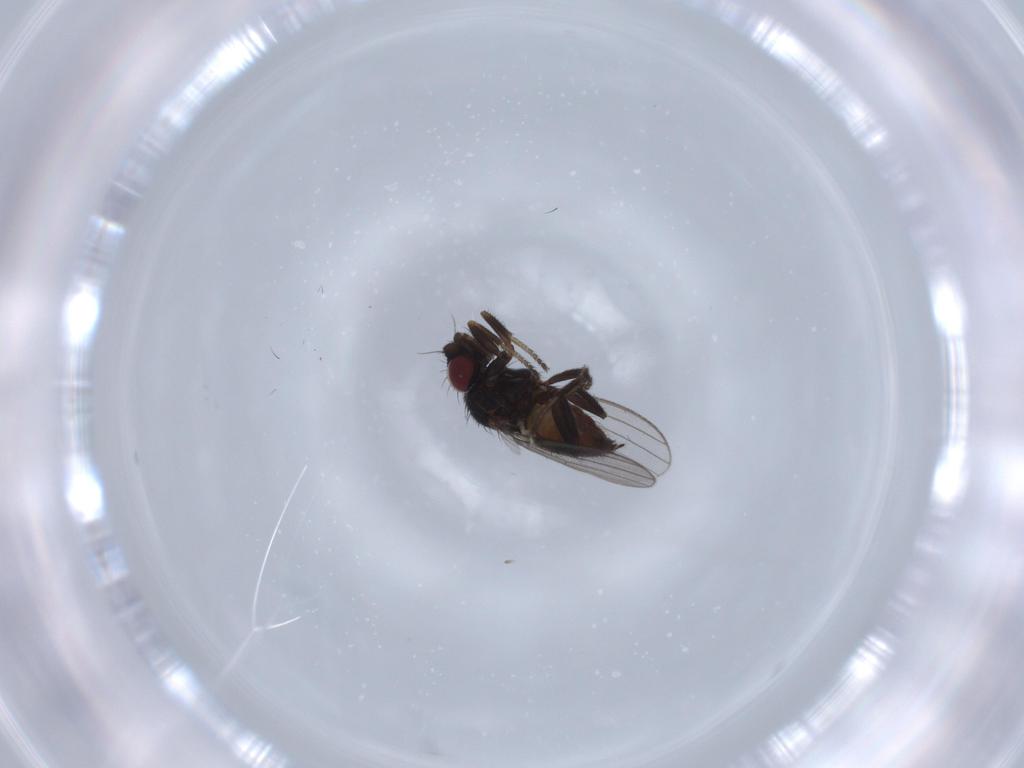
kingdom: Animalia
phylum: Arthropoda
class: Insecta
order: Diptera
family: Milichiidae
